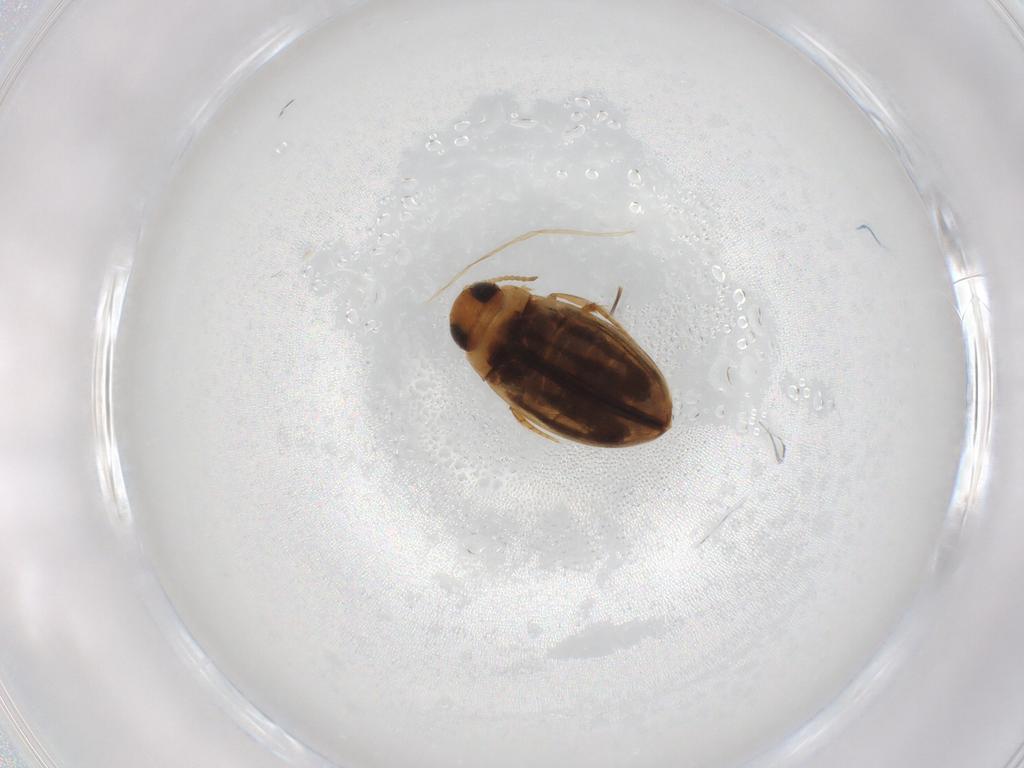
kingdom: Animalia
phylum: Arthropoda
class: Insecta
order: Coleoptera
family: Dytiscidae
